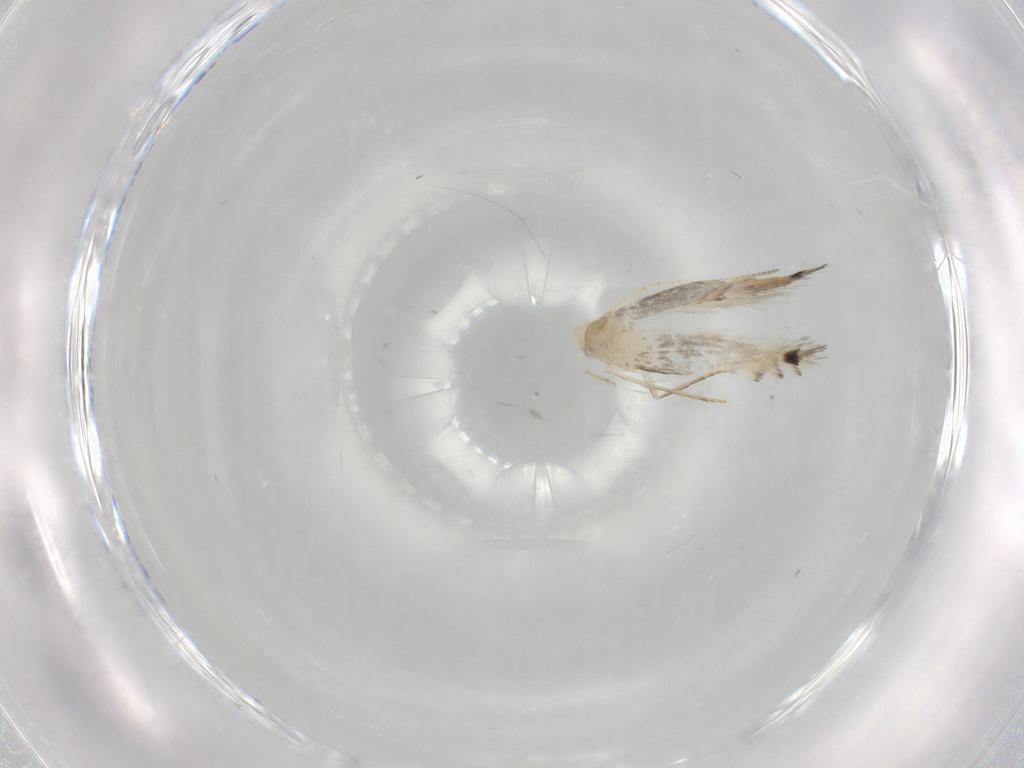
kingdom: Animalia
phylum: Arthropoda
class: Insecta
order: Lepidoptera
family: Gracillariidae
